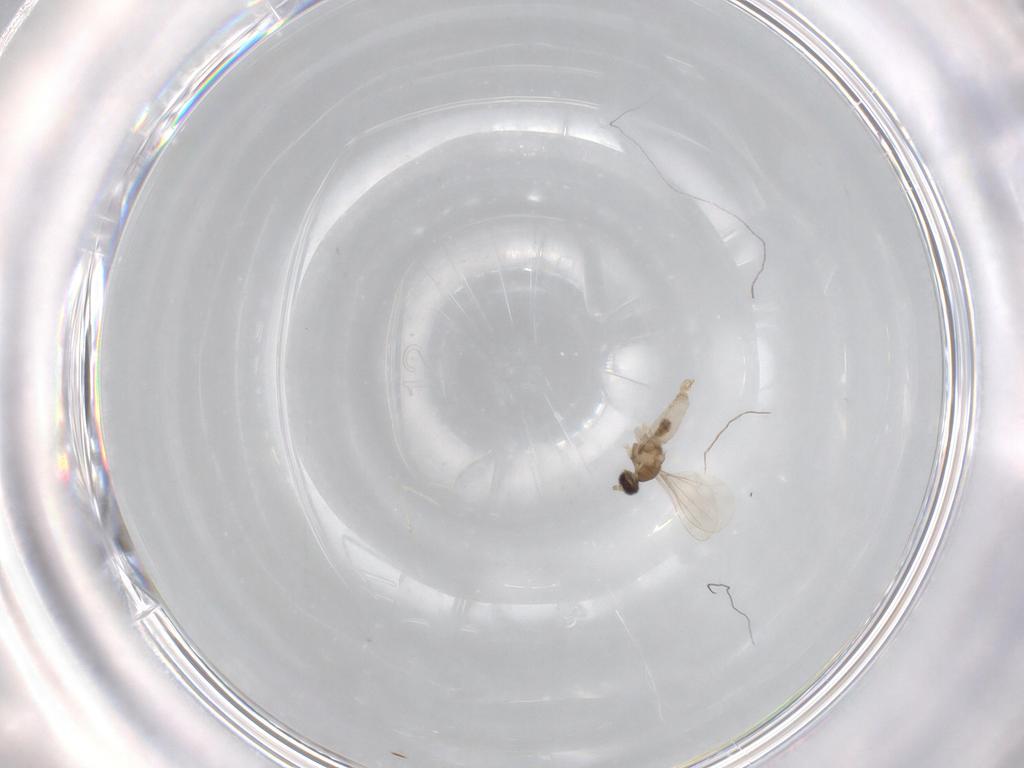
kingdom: Animalia
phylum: Arthropoda
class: Insecta
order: Diptera
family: Cecidomyiidae
